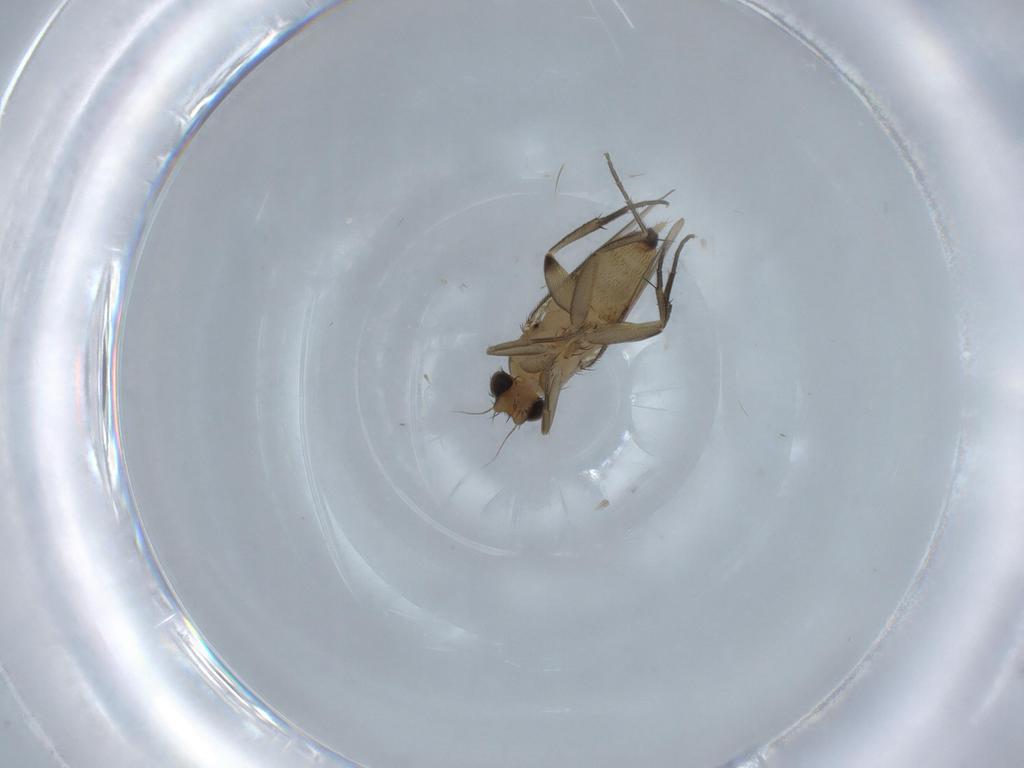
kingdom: Animalia
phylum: Arthropoda
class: Insecta
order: Diptera
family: Phoridae
